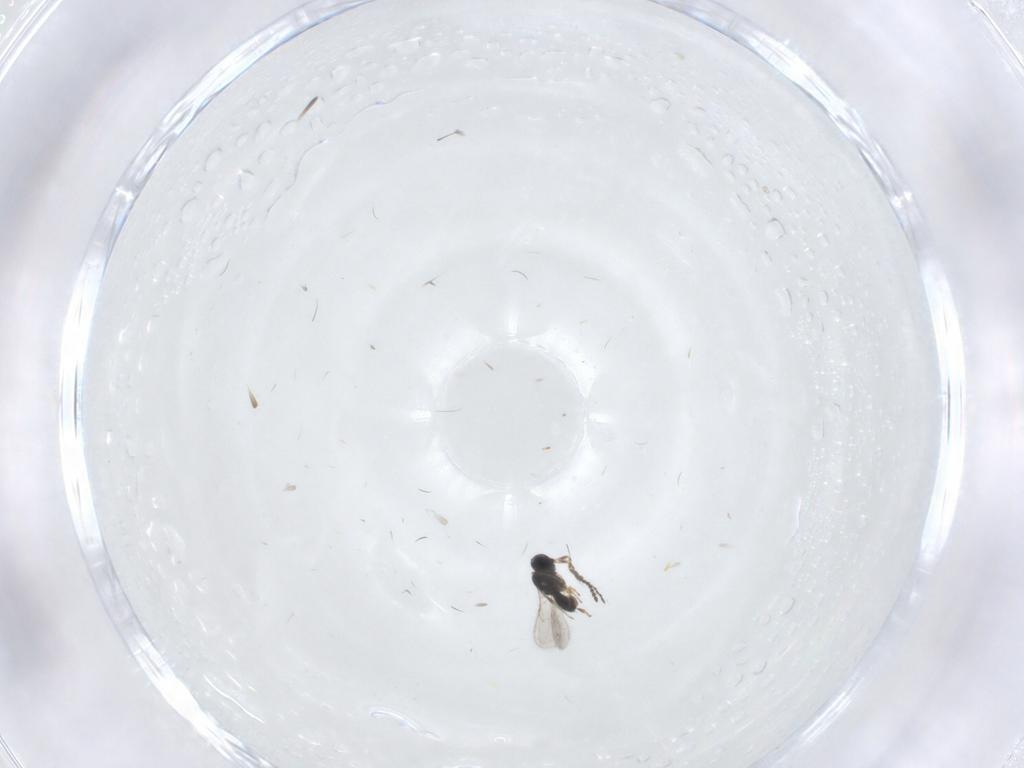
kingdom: Animalia
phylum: Arthropoda
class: Insecta
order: Hymenoptera
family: Scelionidae
